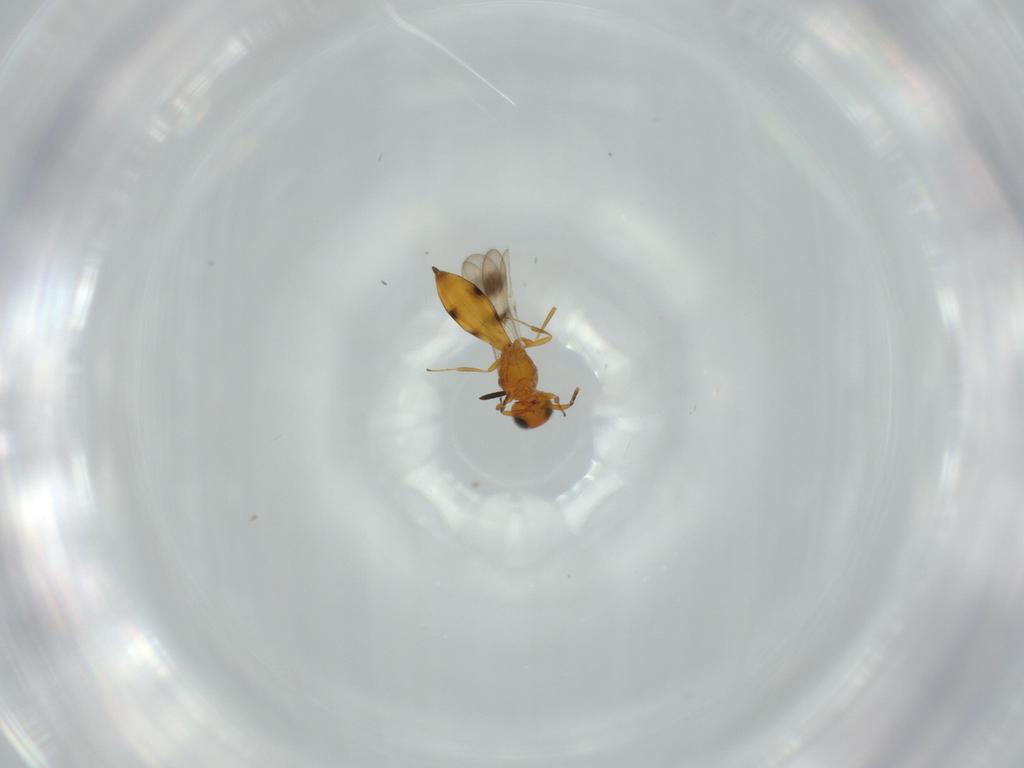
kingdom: Animalia
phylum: Arthropoda
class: Insecta
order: Hymenoptera
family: Scelionidae
